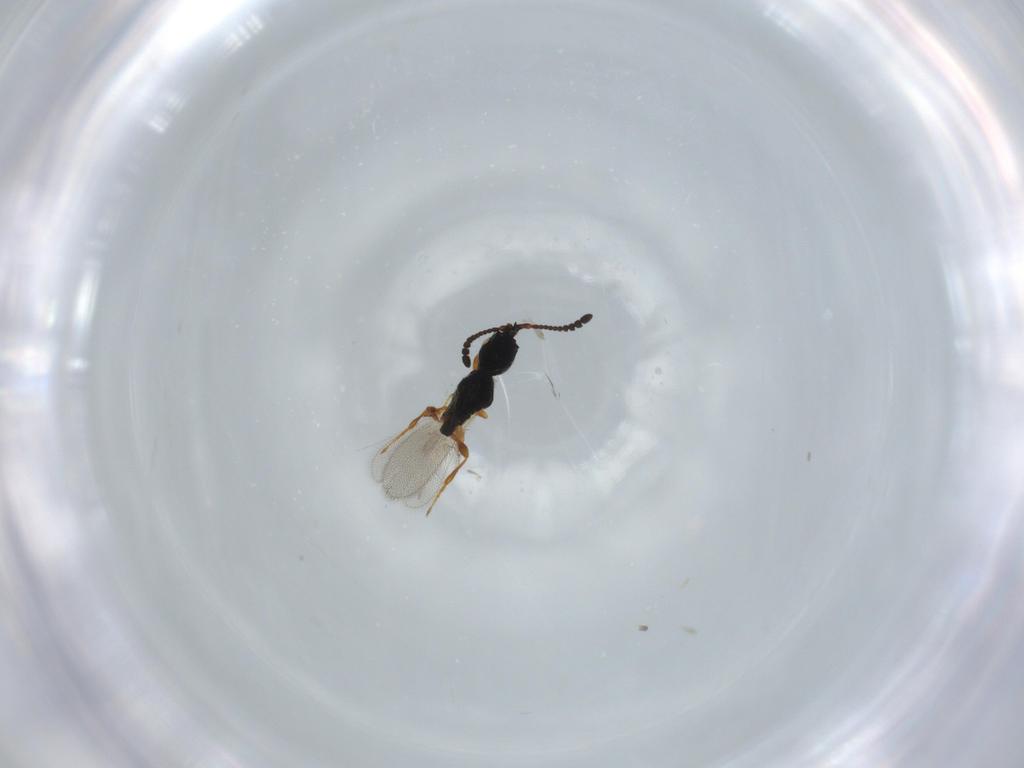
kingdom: Animalia
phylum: Arthropoda
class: Insecta
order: Hymenoptera
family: Diapriidae
